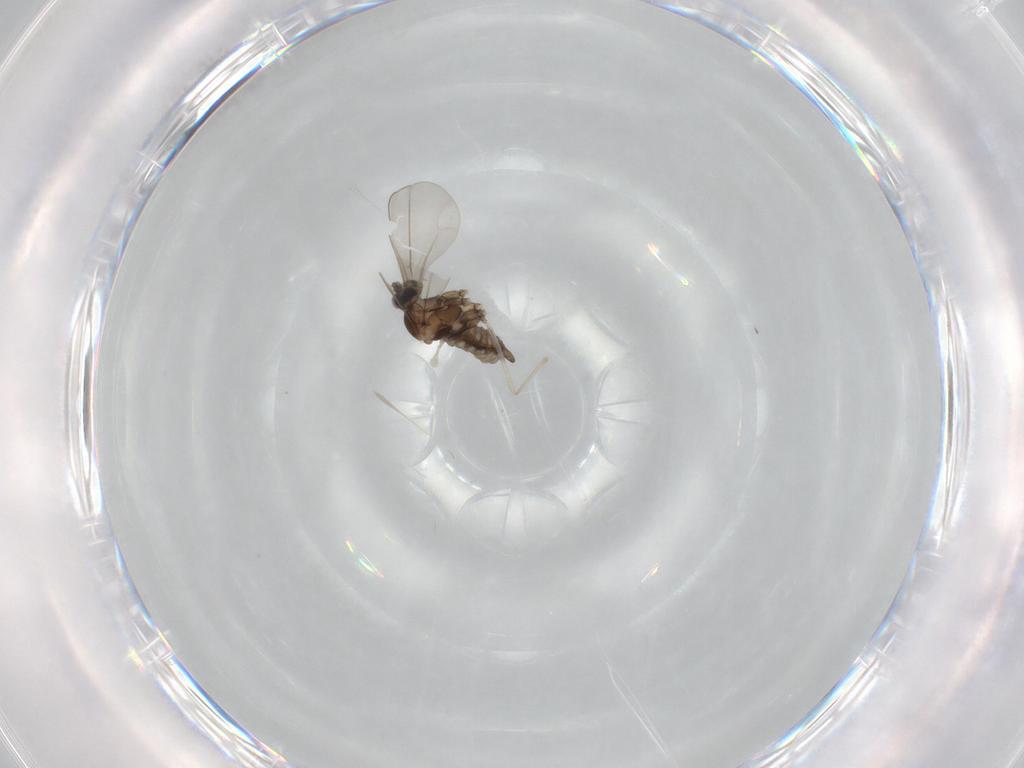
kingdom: Animalia
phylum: Arthropoda
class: Insecta
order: Diptera
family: Cecidomyiidae
